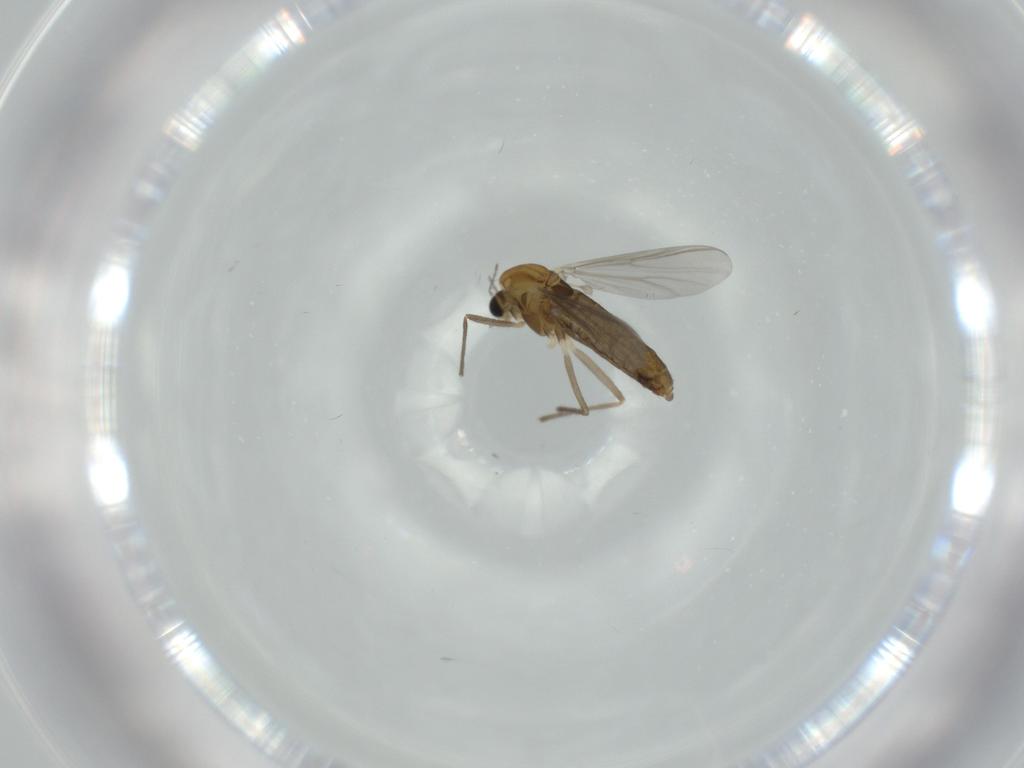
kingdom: Animalia
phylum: Arthropoda
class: Insecta
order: Diptera
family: Chironomidae
